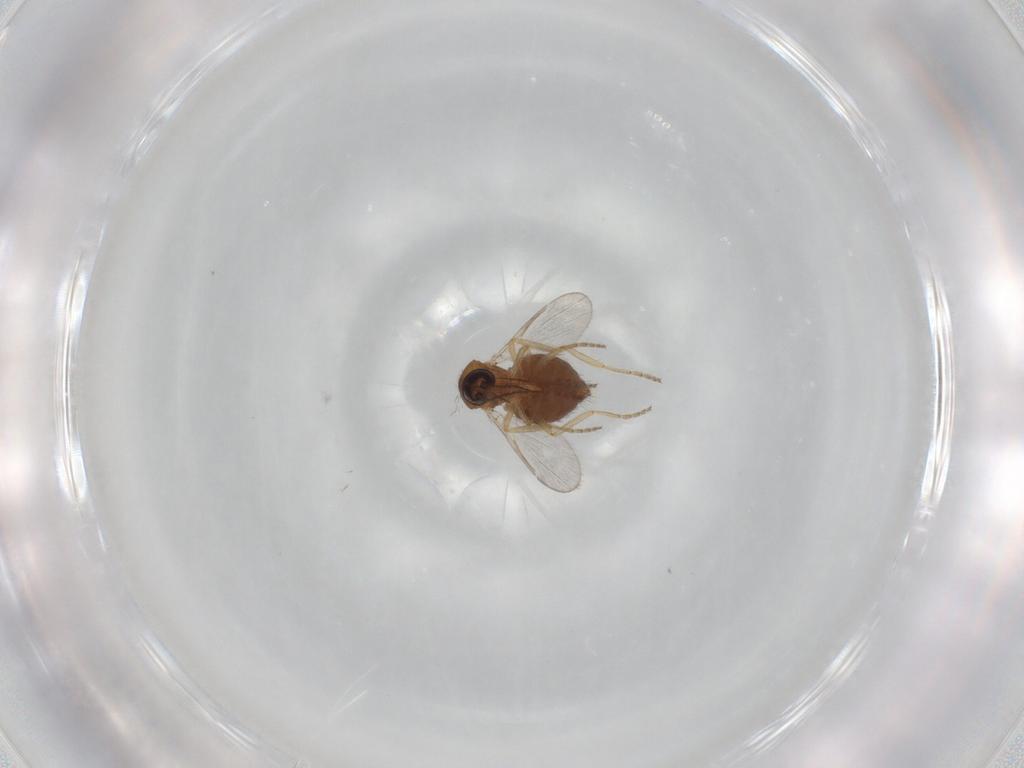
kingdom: Animalia
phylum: Arthropoda
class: Insecta
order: Diptera
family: Ceratopogonidae
